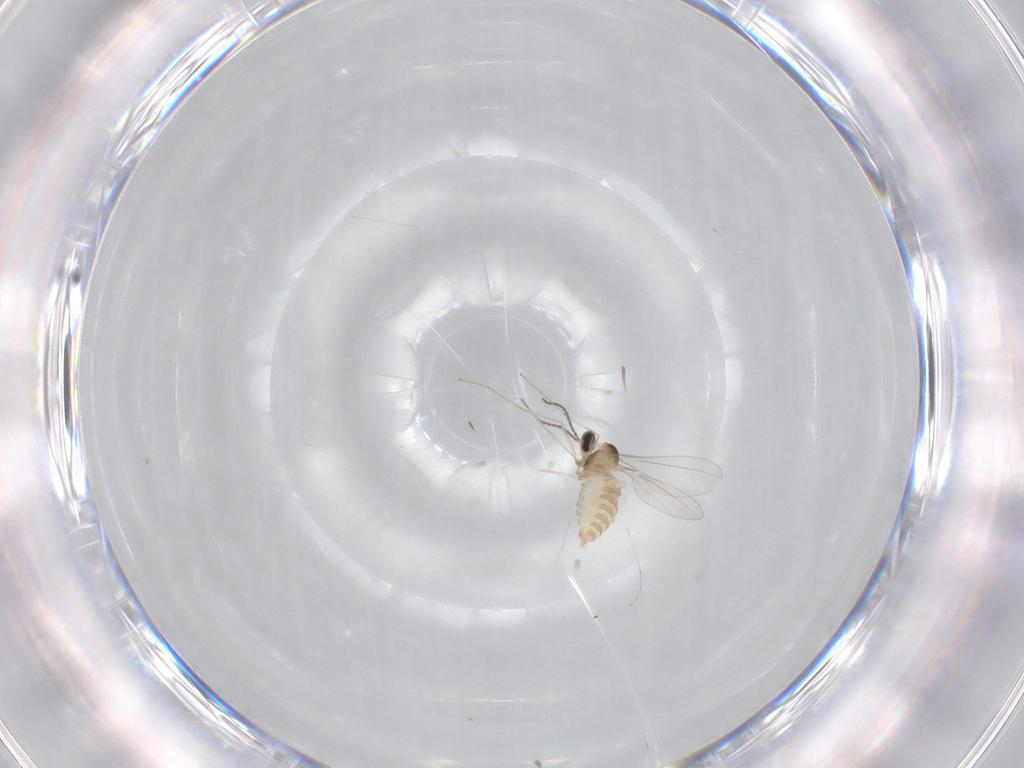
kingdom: Animalia
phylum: Arthropoda
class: Insecta
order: Diptera
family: Cecidomyiidae
